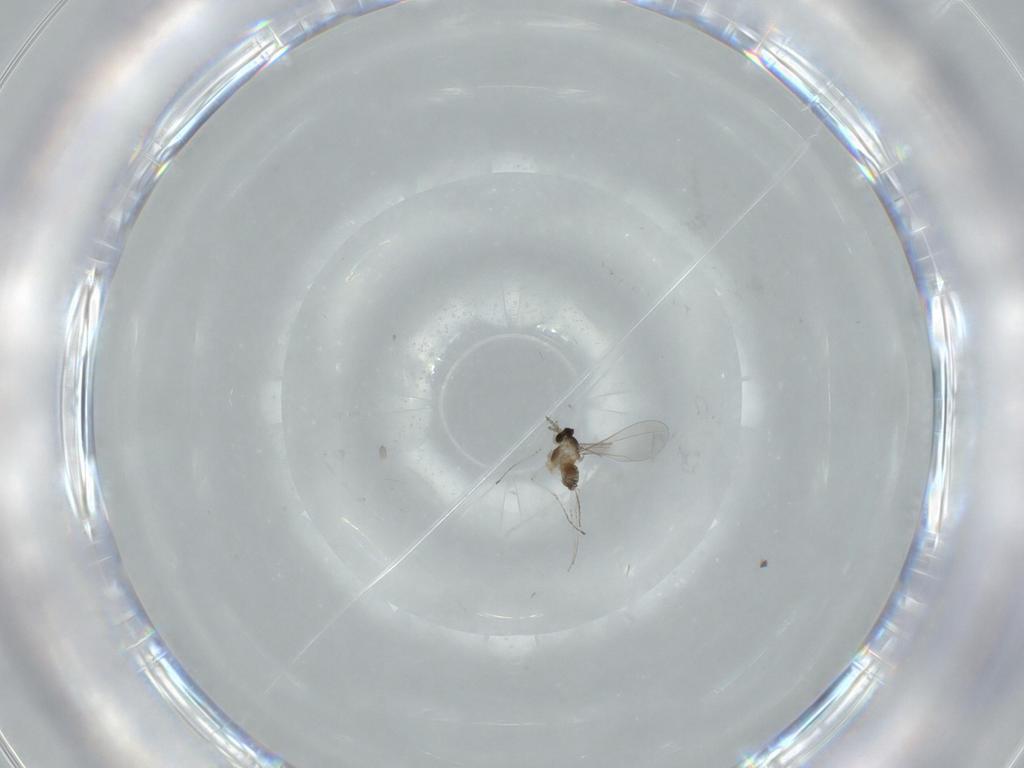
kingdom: Animalia
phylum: Arthropoda
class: Insecta
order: Diptera
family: Cecidomyiidae
